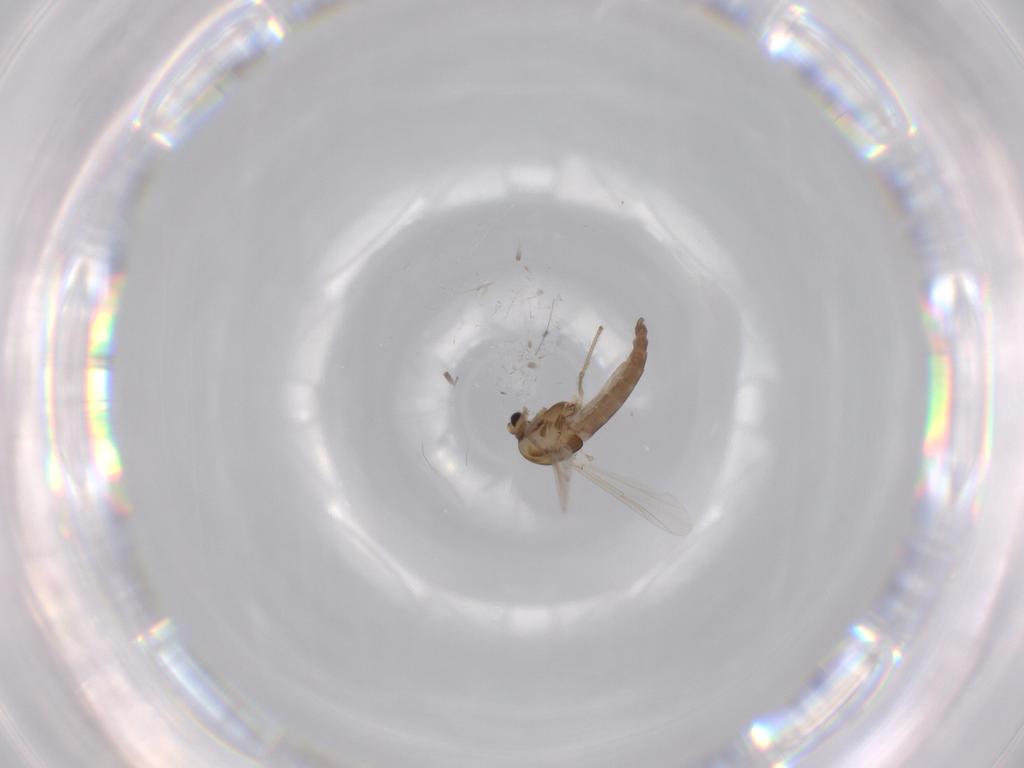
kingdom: Animalia
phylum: Arthropoda
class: Insecta
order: Diptera
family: Chironomidae
